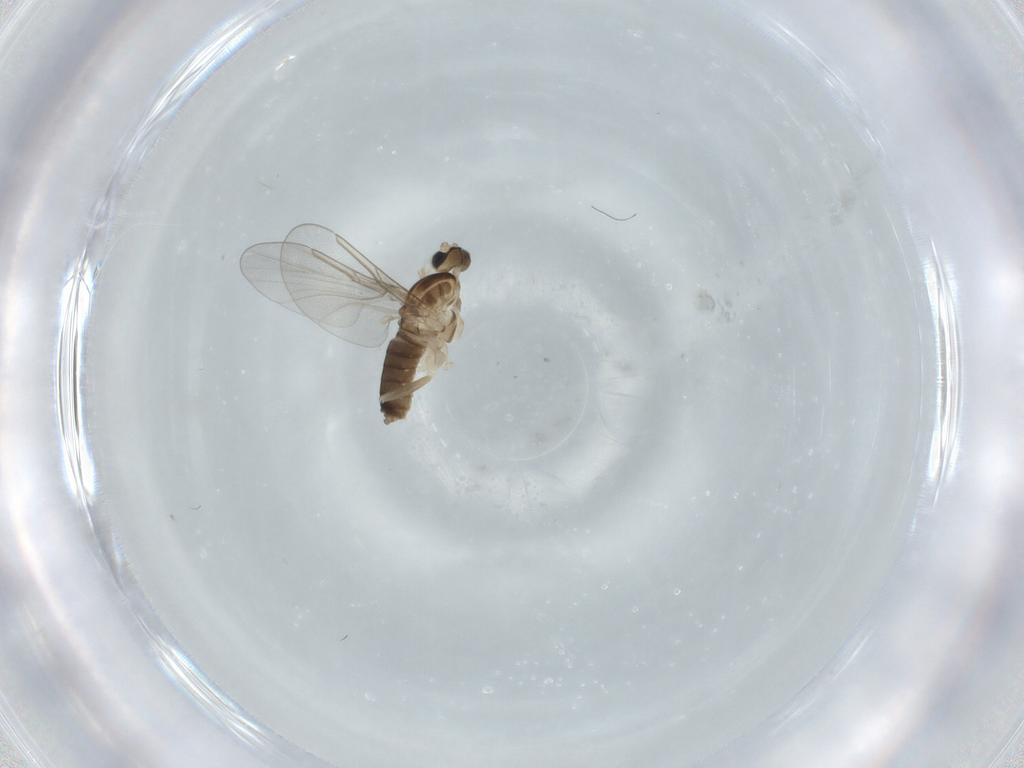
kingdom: Animalia
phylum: Arthropoda
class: Insecta
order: Diptera
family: Cecidomyiidae
